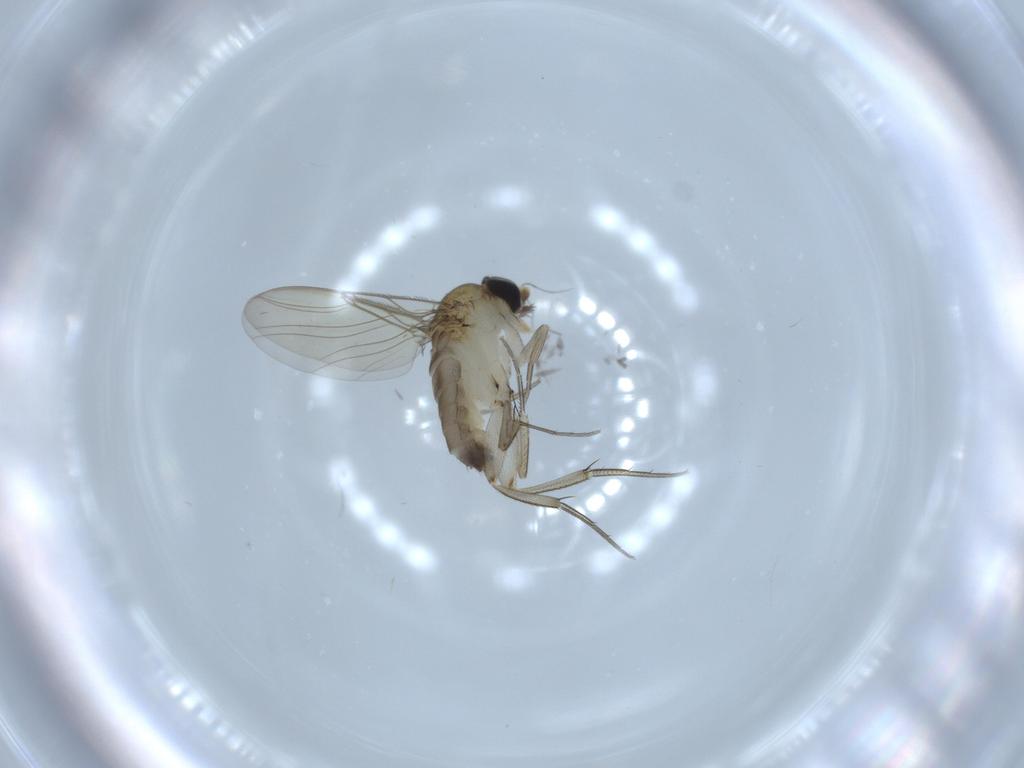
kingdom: Animalia
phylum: Arthropoda
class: Insecta
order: Diptera
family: Phoridae
